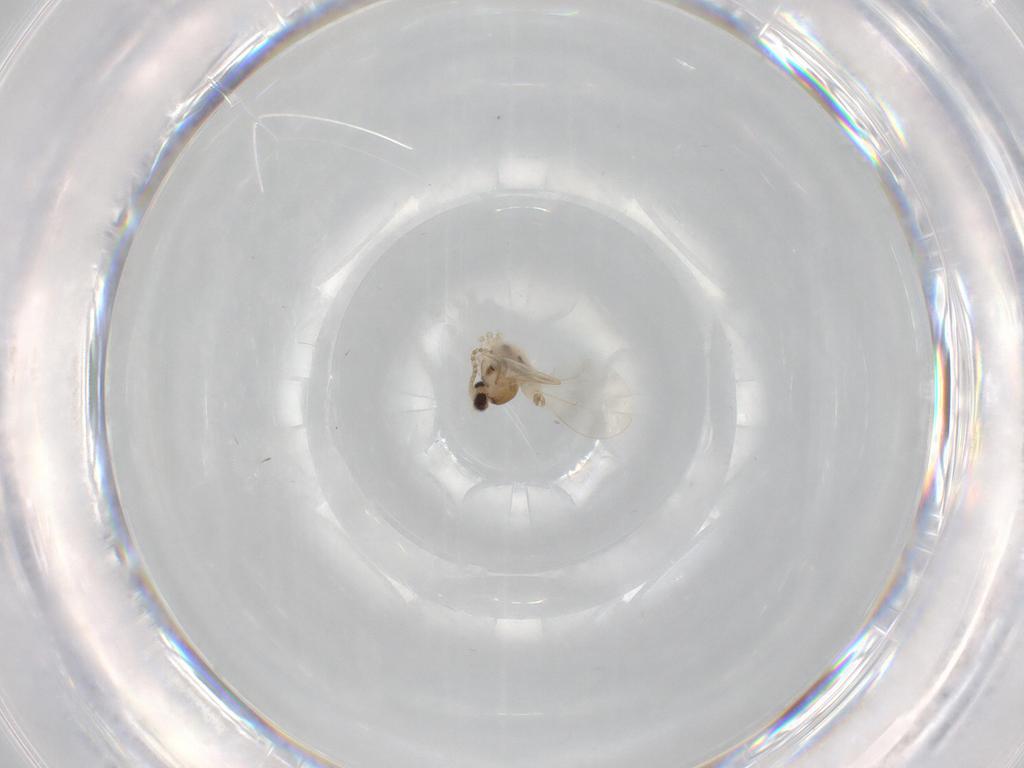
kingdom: Animalia
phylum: Arthropoda
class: Insecta
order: Diptera
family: Cecidomyiidae
